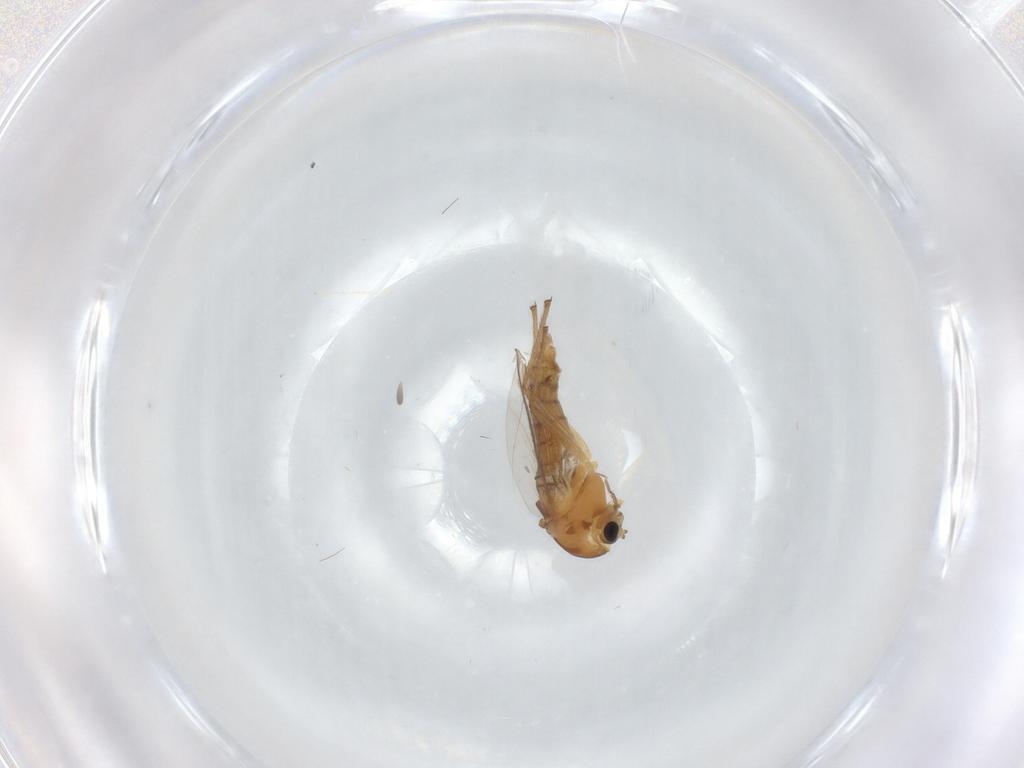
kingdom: Animalia
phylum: Arthropoda
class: Insecta
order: Diptera
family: Chironomidae
